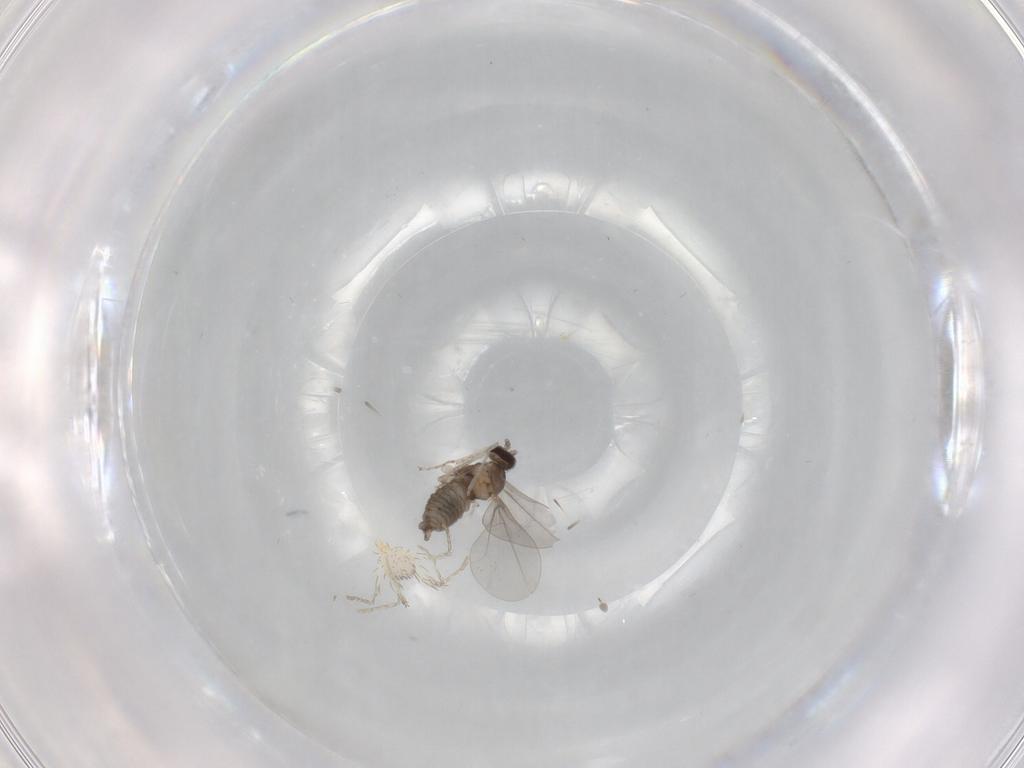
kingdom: Animalia
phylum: Arthropoda
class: Insecta
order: Diptera
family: Psychodidae
